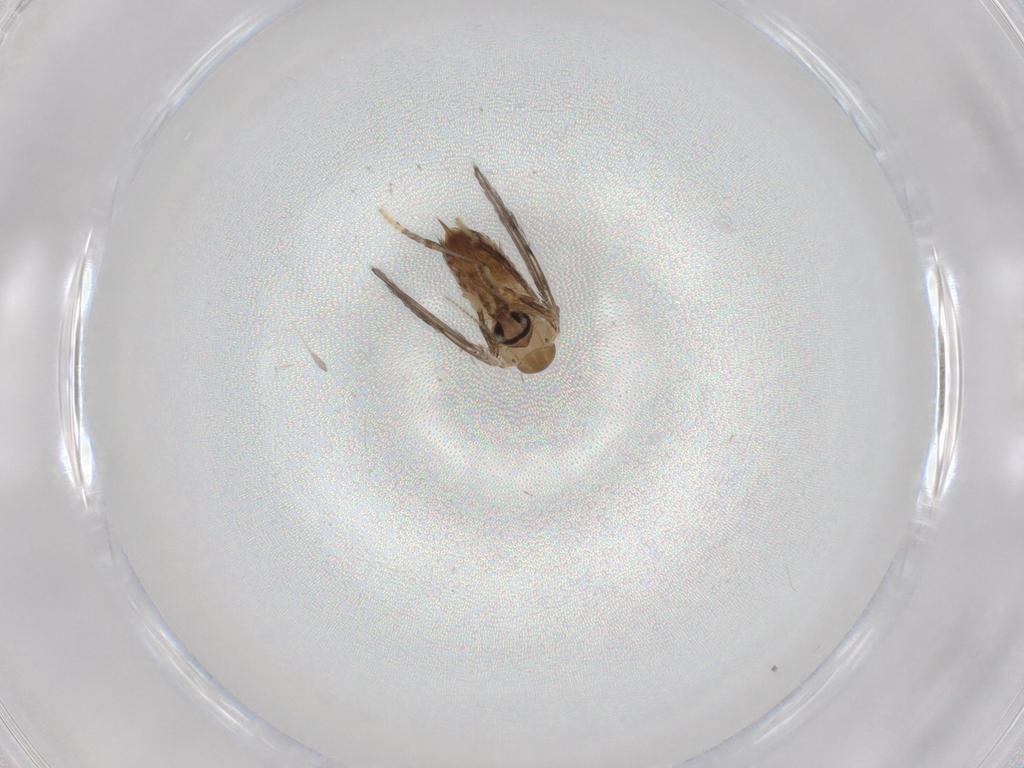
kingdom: Animalia
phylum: Arthropoda
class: Insecta
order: Diptera
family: Psychodidae
